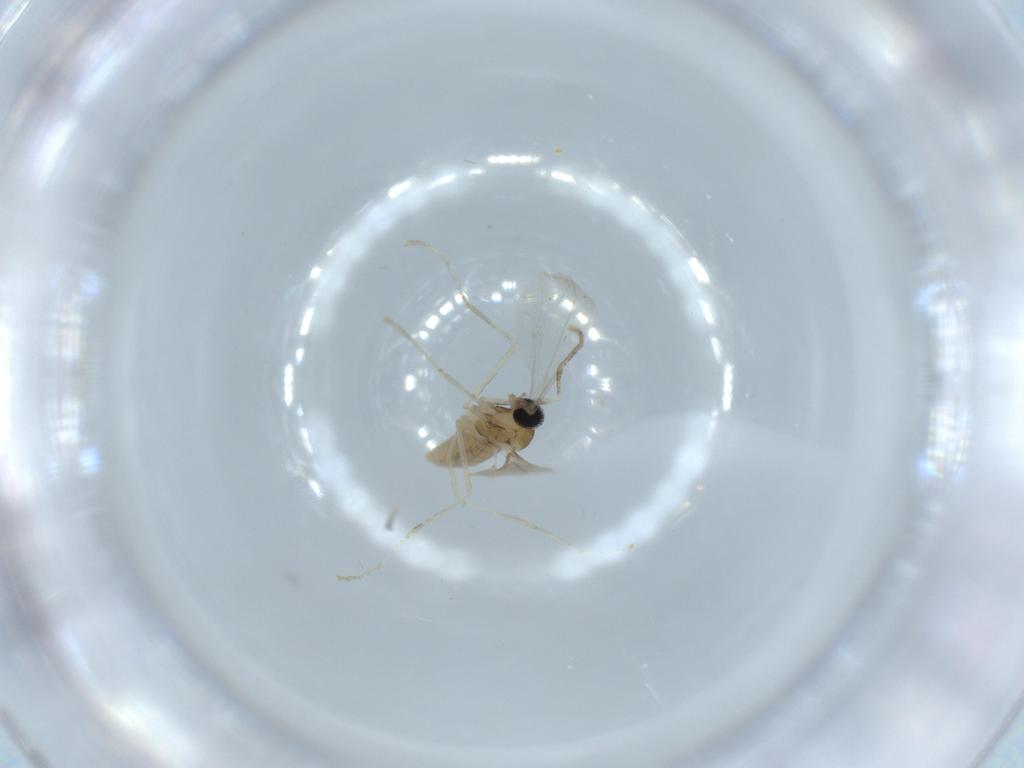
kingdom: Animalia
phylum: Arthropoda
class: Insecta
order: Diptera
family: Cecidomyiidae
